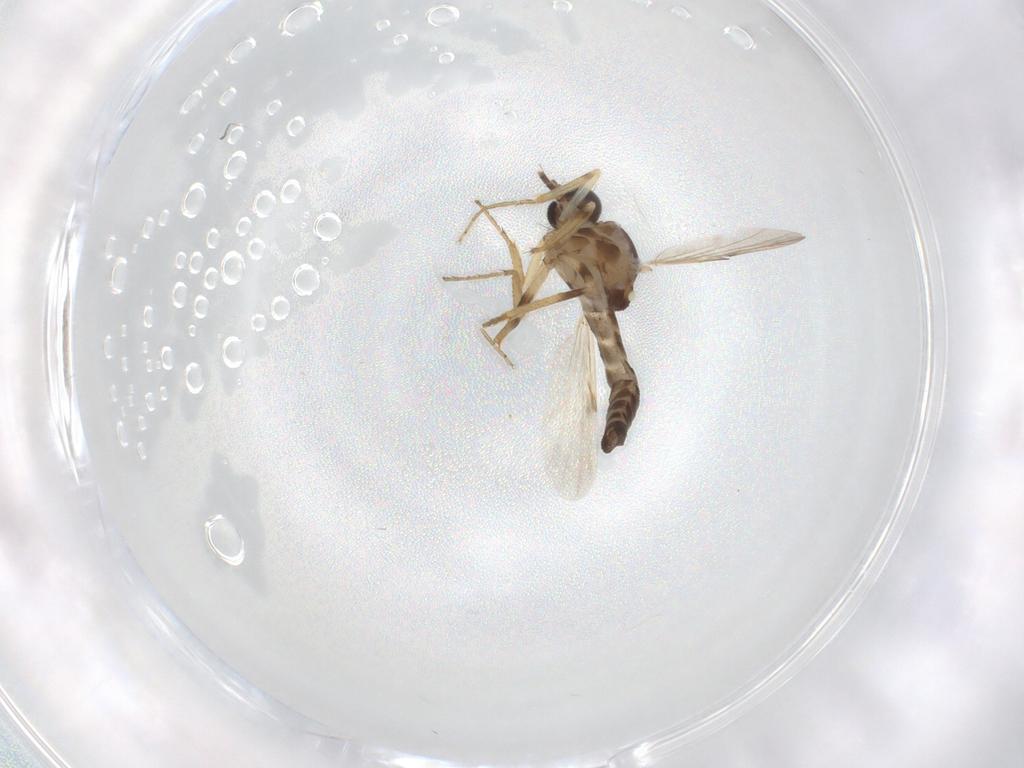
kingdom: Animalia
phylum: Arthropoda
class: Insecta
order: Diptera
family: Ceratopogonidae
